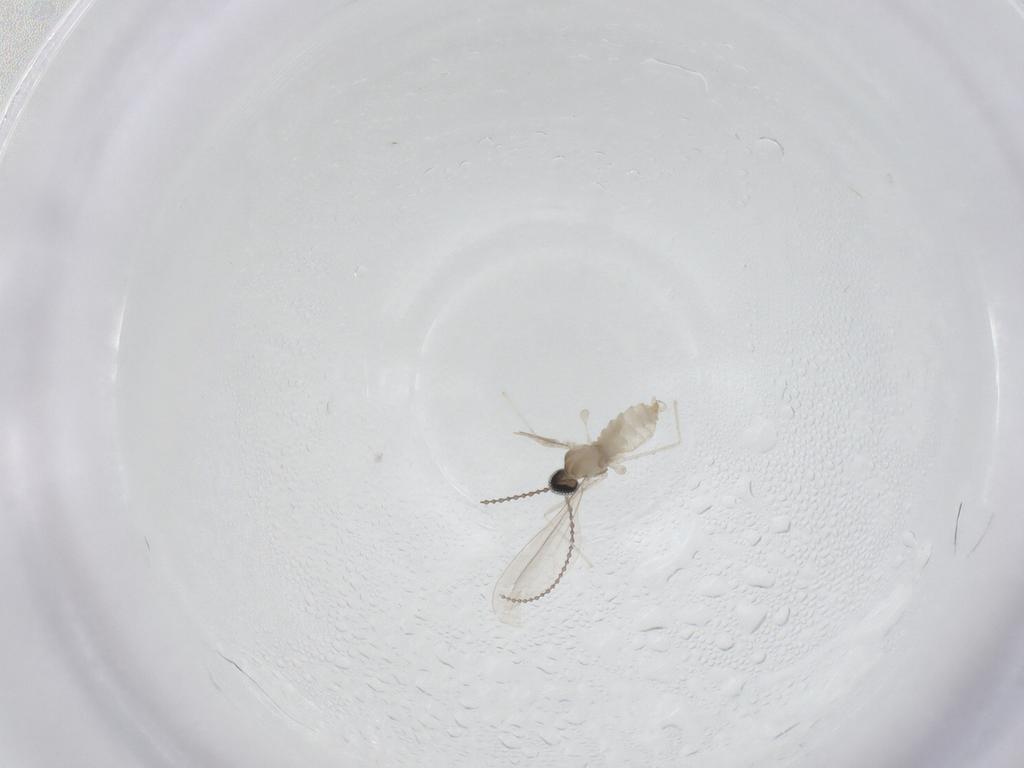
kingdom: Animalia
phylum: Arthropoda
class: Insecta
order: Diptera
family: Cecidomyiidae
